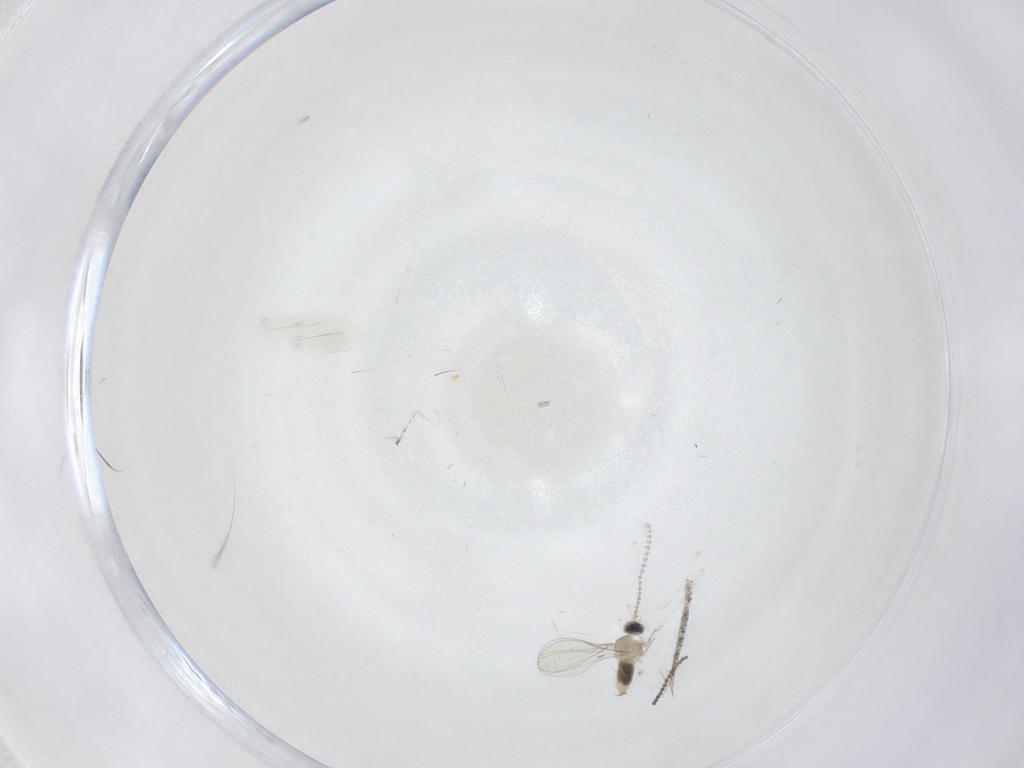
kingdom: Animalia
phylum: Arthropoda
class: Insecta
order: Diptera
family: Cecidomyiidae
